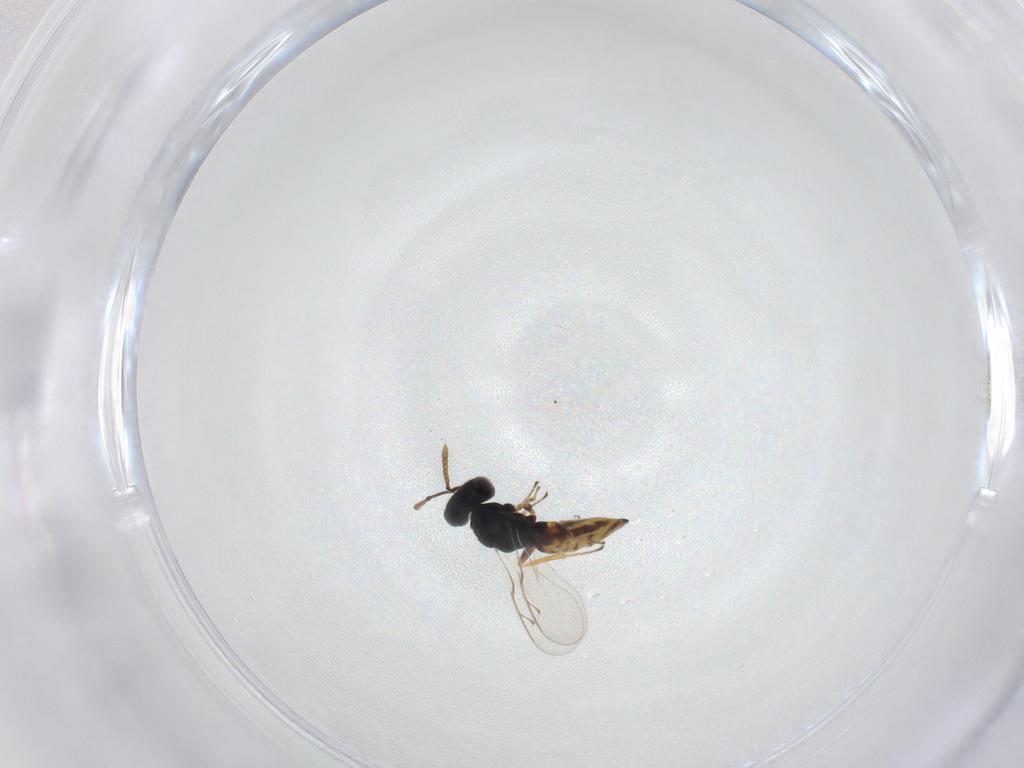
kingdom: Animalia
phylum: Arthropoda
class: Insecta
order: Hymenoptera
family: Pteromalidae
